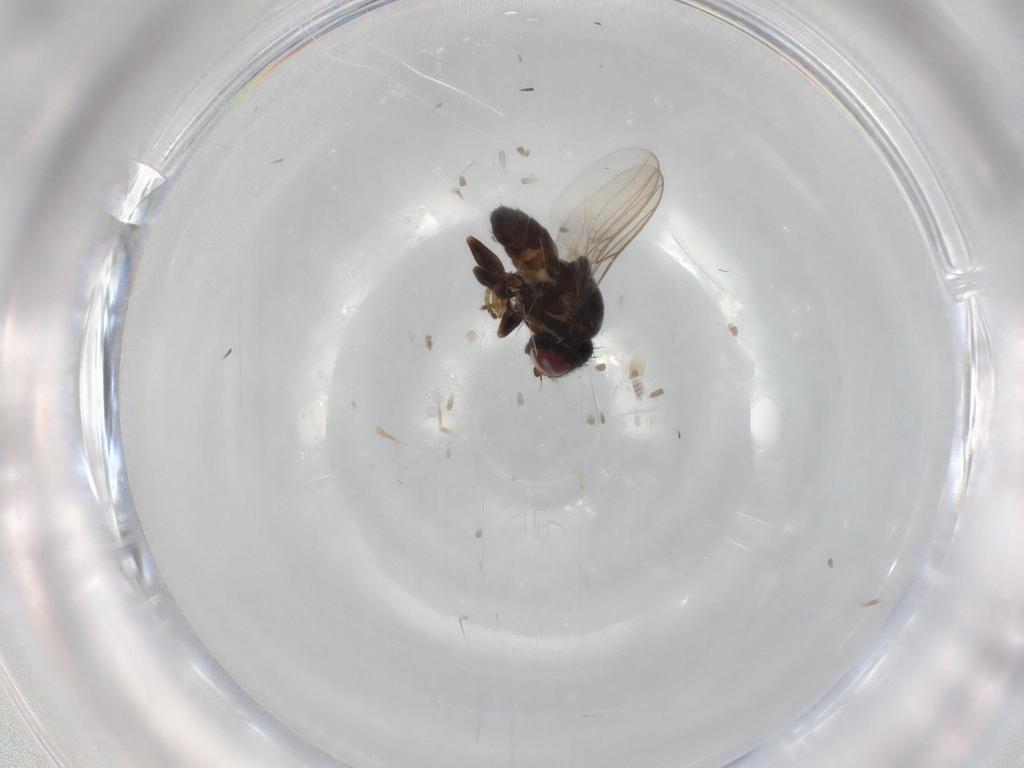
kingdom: Animalia
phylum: Arthropoda
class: Insecta
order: Diptera
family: Chloropidae
